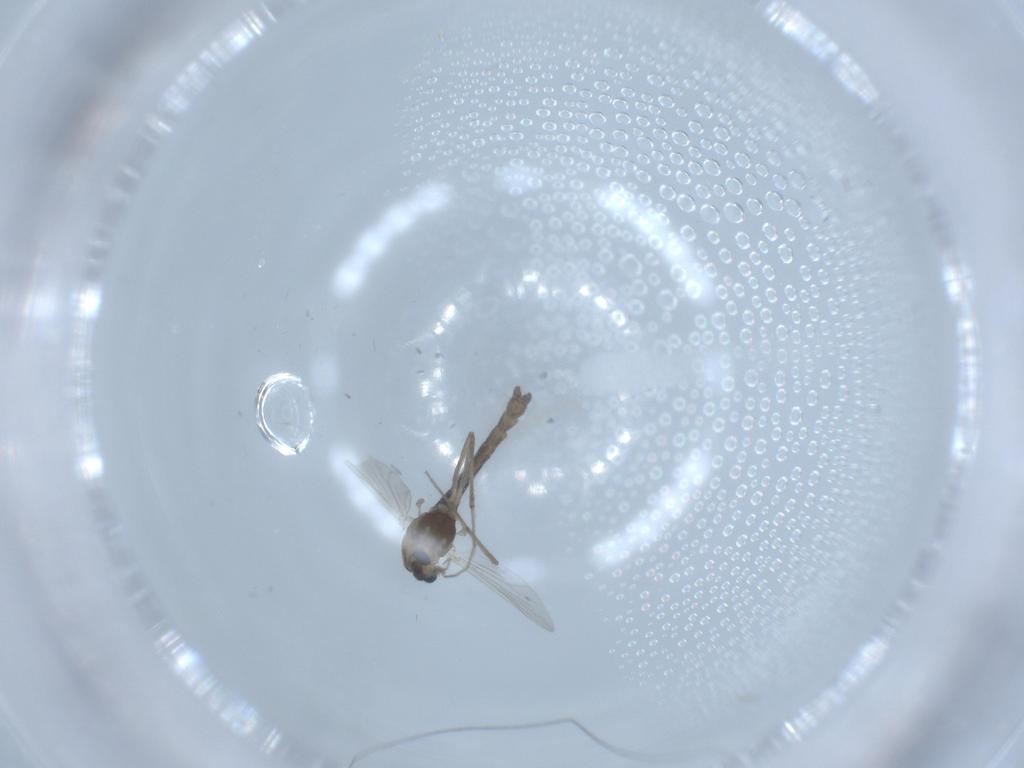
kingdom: Animalia
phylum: Arthropoda
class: Insecta
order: Diptera
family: Chironomidae
